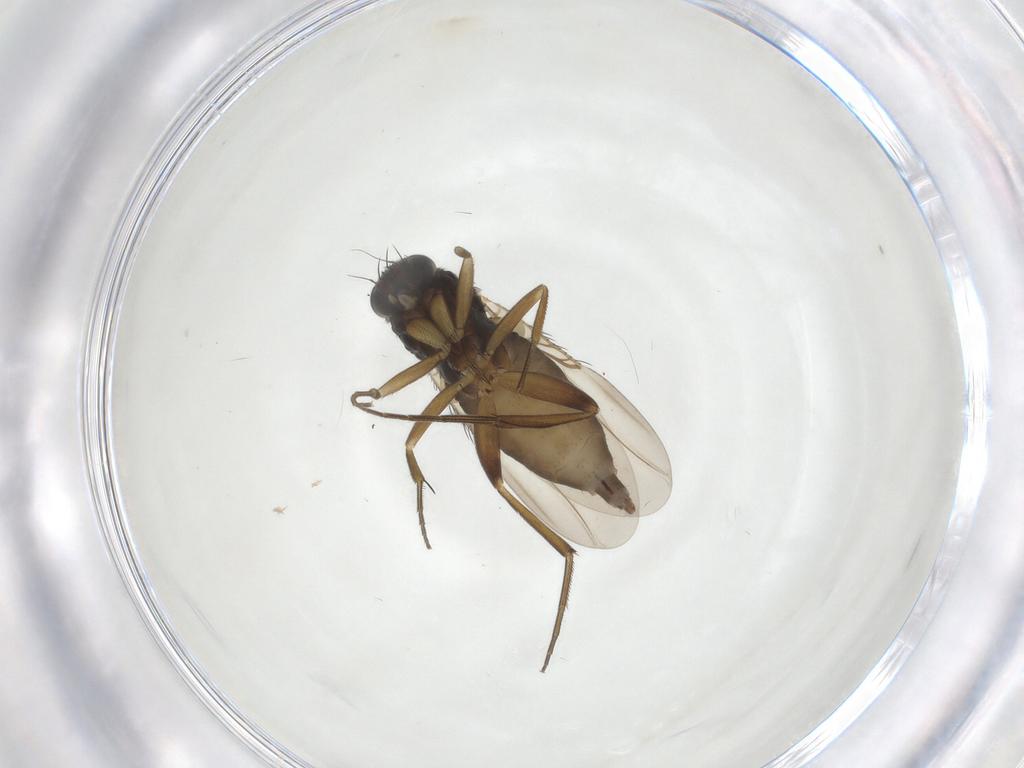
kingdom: Animalia
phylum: Arthropoda
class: Insecta
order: Diptera
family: Phoridae
